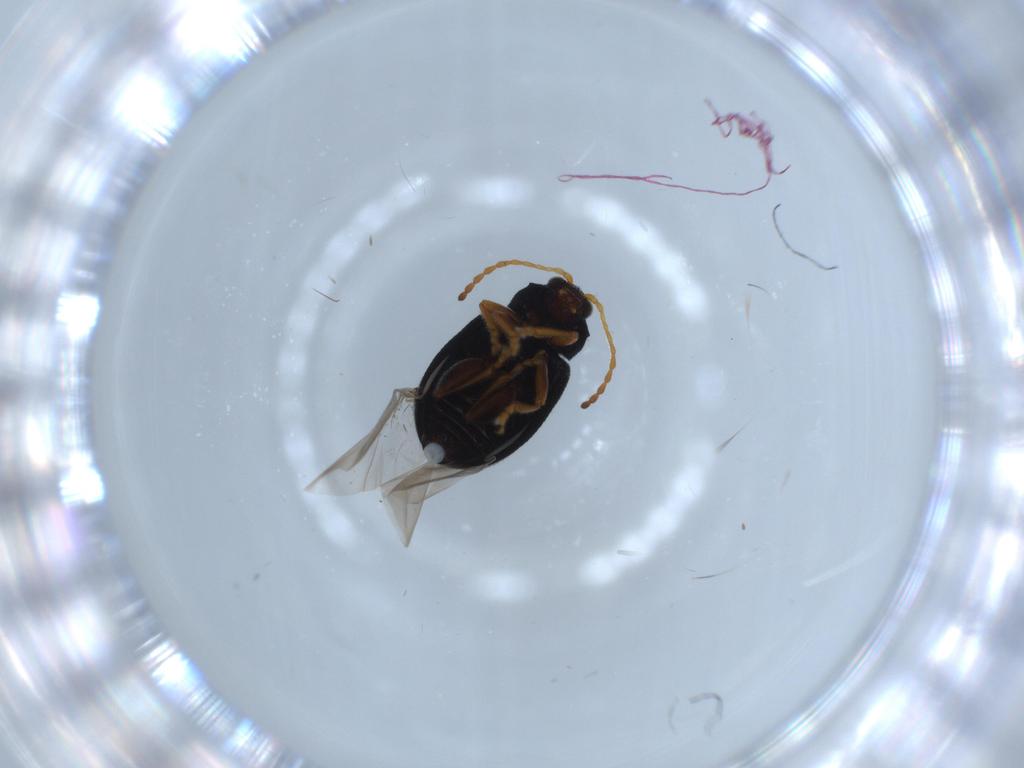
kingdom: Animalia
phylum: Arthropoda
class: Insecta
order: Coleoptera
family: Chrysomelidae
